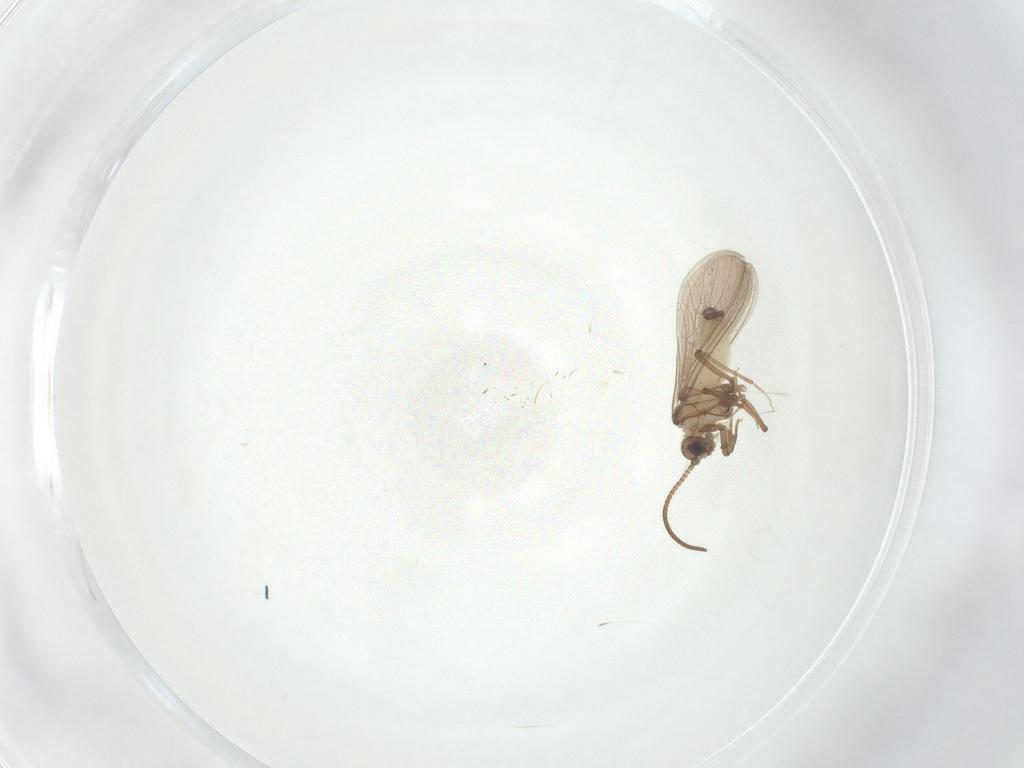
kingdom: Animalia
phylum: Arthropoda
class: Insecta
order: Neuroptera
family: Coniopterygidae
